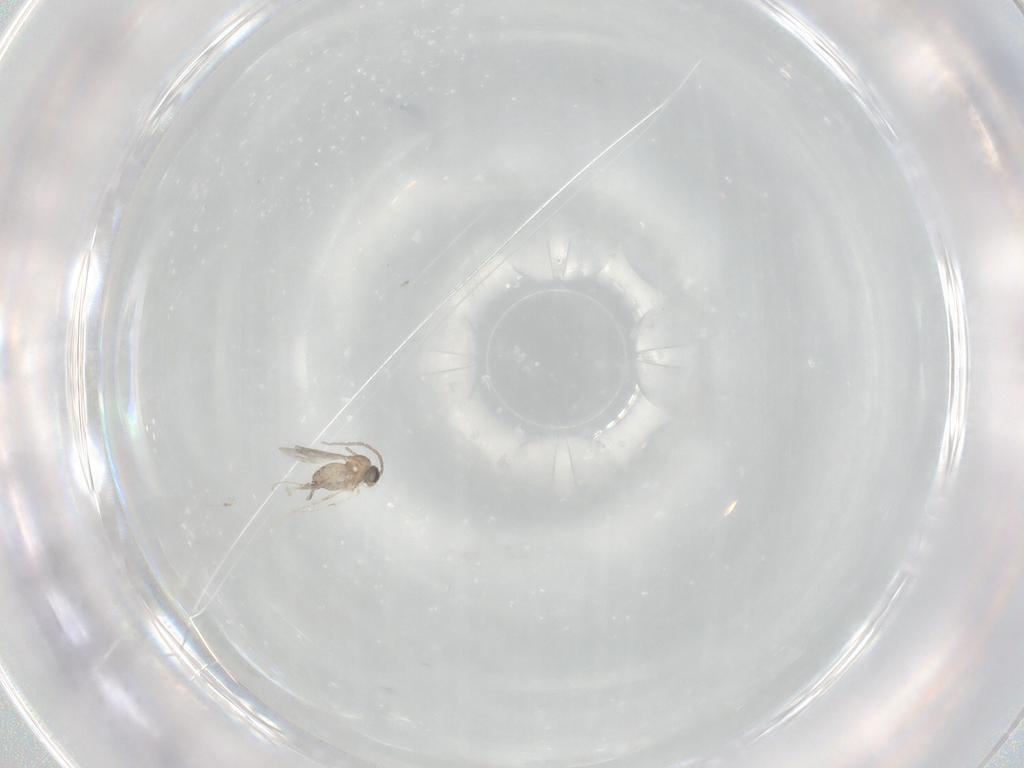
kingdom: Animalia
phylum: Arthropoda
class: Insecta
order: Diptera
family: Cecidomyiidae
